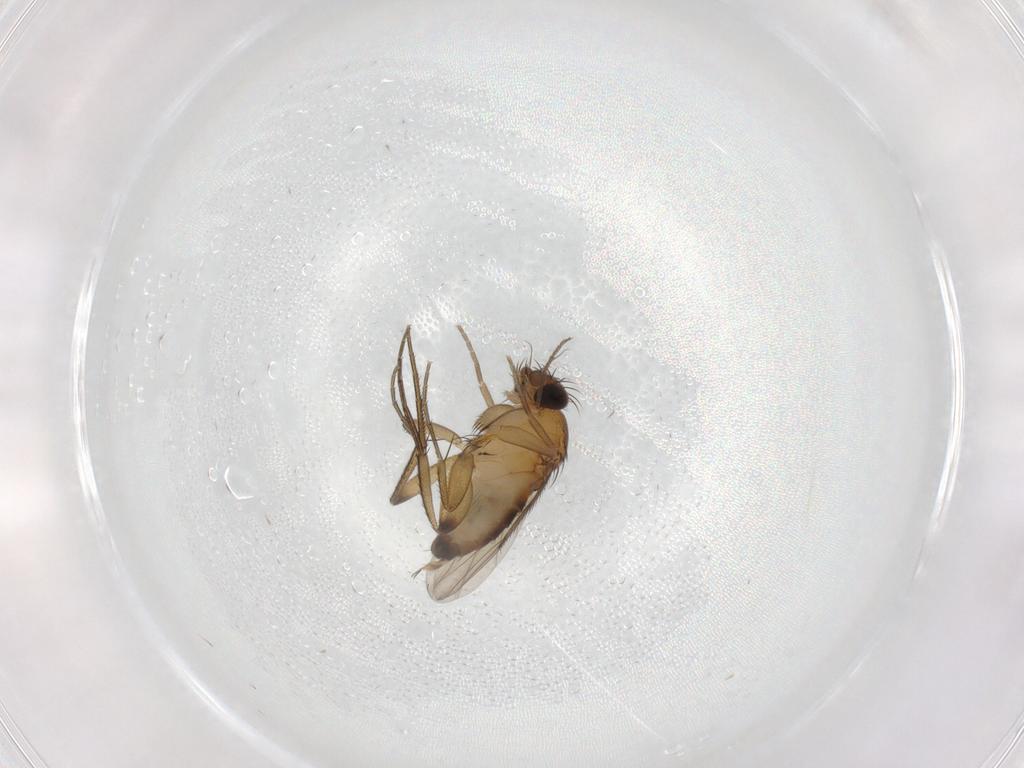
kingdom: Animalia
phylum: Arthropoda
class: Insecta
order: Diptera
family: Phoridae
